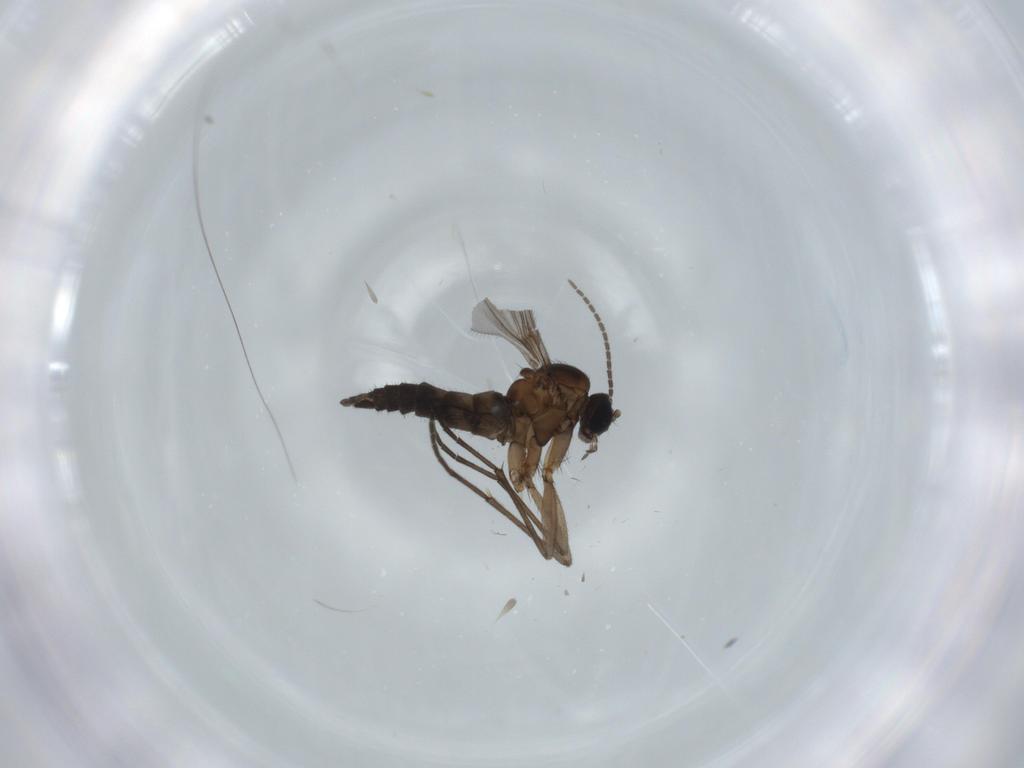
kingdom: Animalia
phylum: Arthropoda
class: Insecta
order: Diptera
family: Sciaridae
